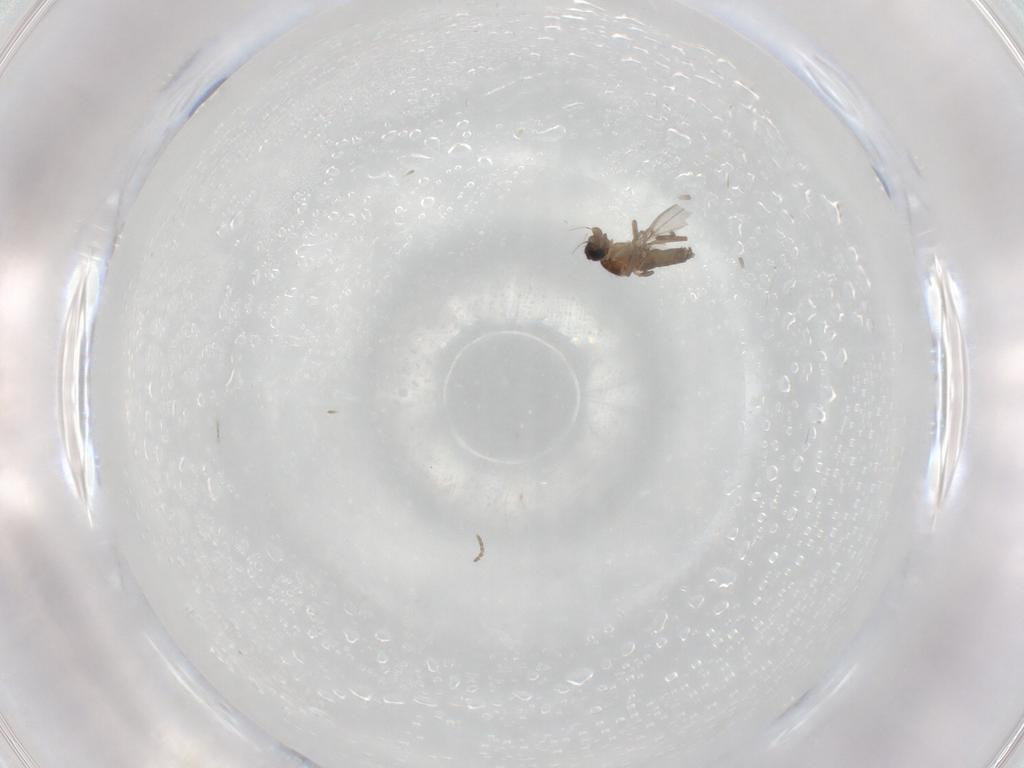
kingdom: Animalia
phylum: Arthropoda
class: Insecta
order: Diptera
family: Phoridae
